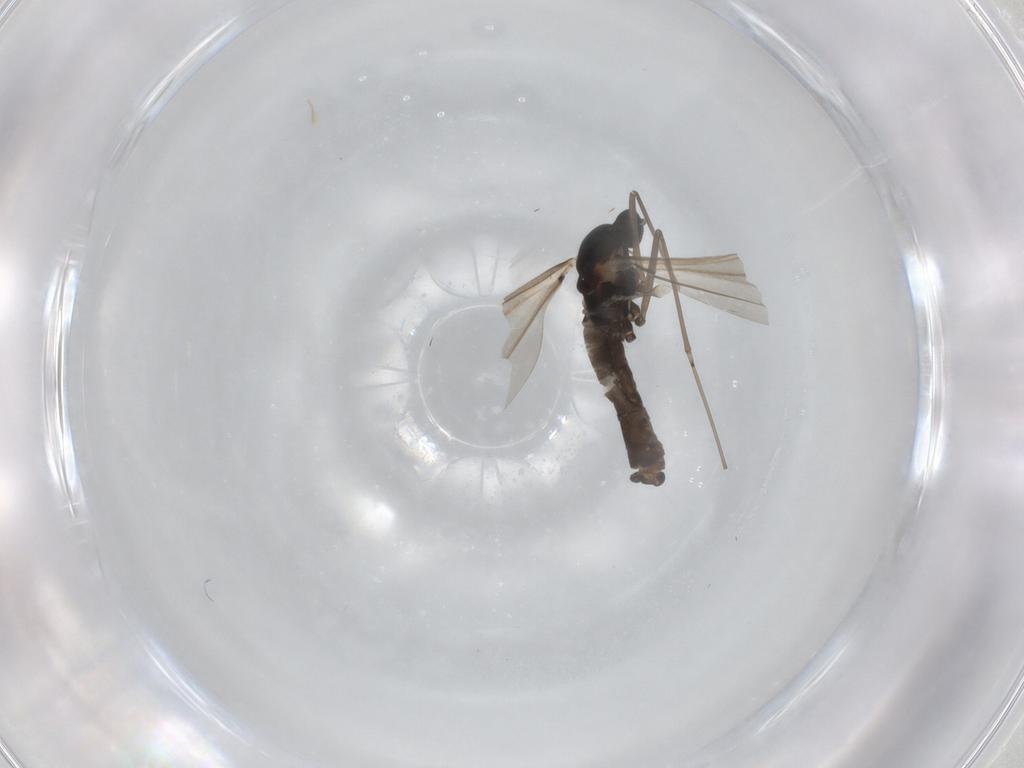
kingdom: Animalia
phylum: Arthropoda
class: Insecta
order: Diptera
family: Cecidomyiidae
